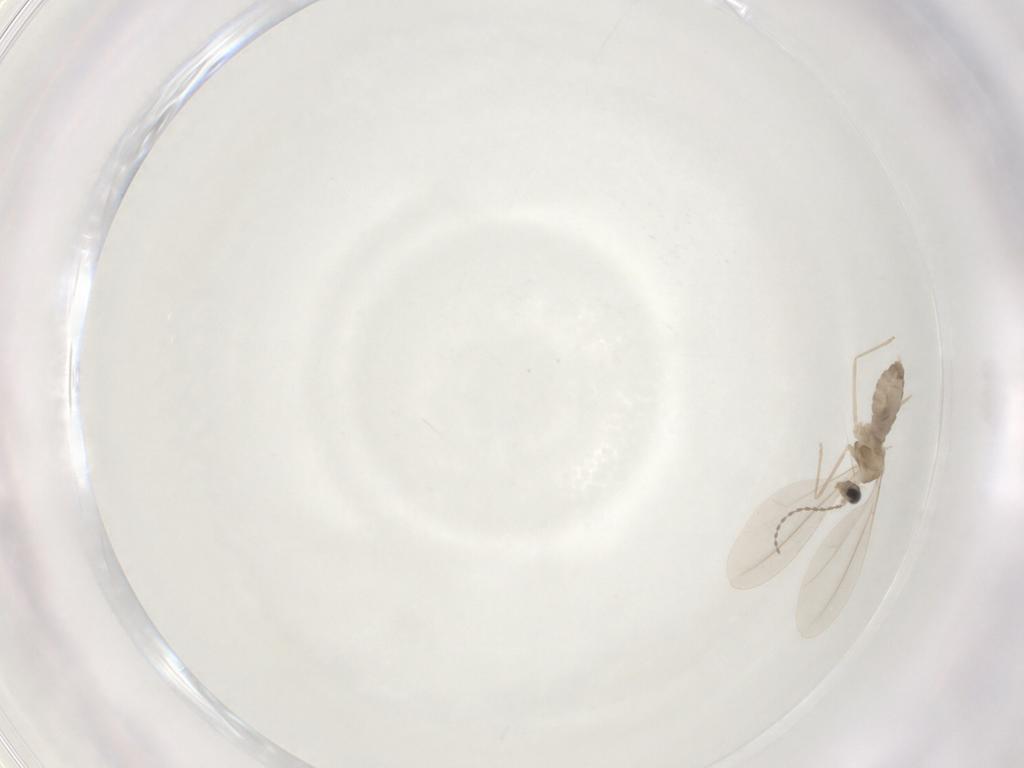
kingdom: Animalia
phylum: Arthropoda
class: Insecta
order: Diptera
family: Cecidomyiidae
